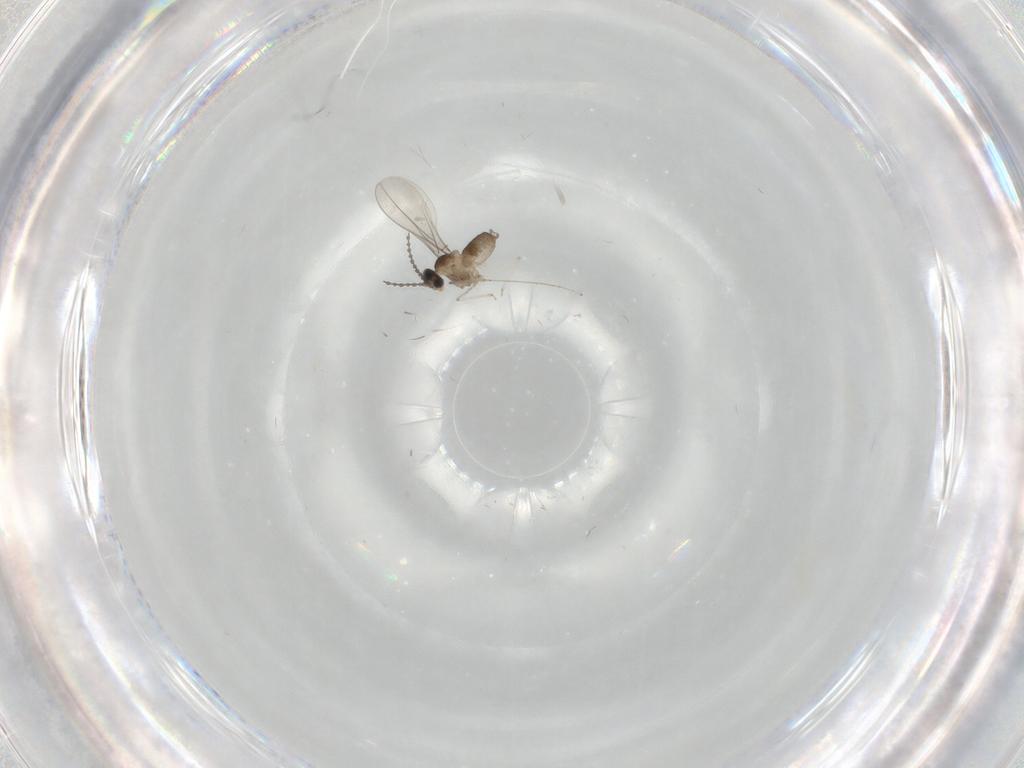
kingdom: Animalia
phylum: Arthropoda
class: Insecta
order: Diptera
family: Cecidomyiidae
